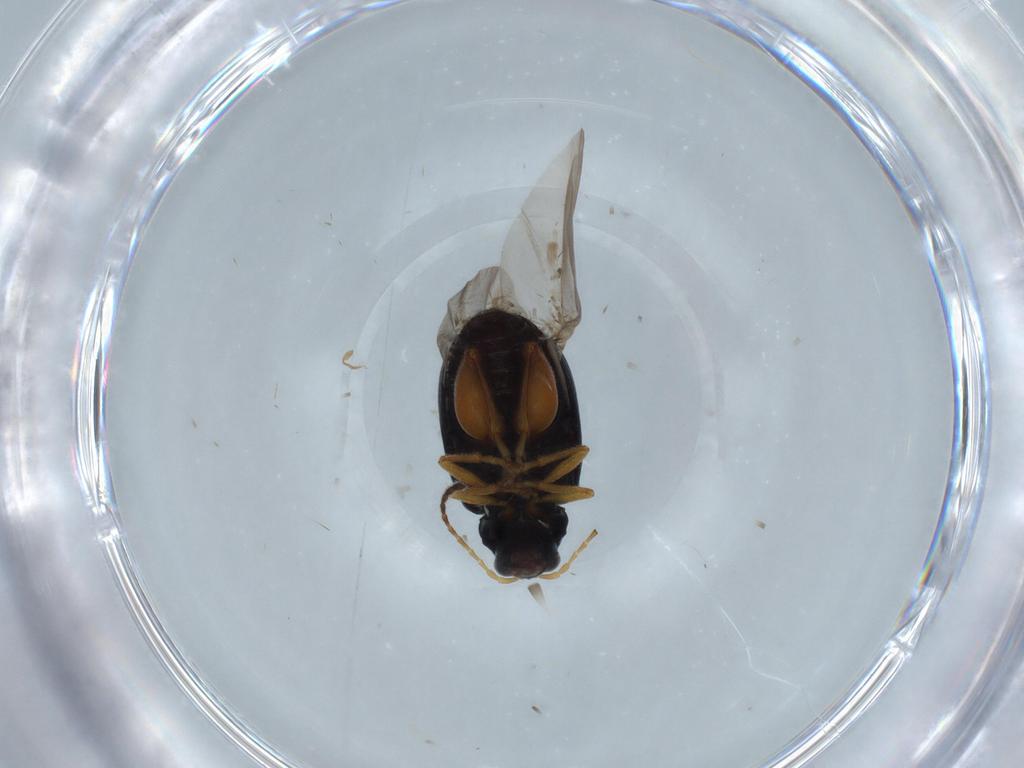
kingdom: Animalia
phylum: Arthropoda
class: Insecta
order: Coleoptera
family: Chrysomelidae
